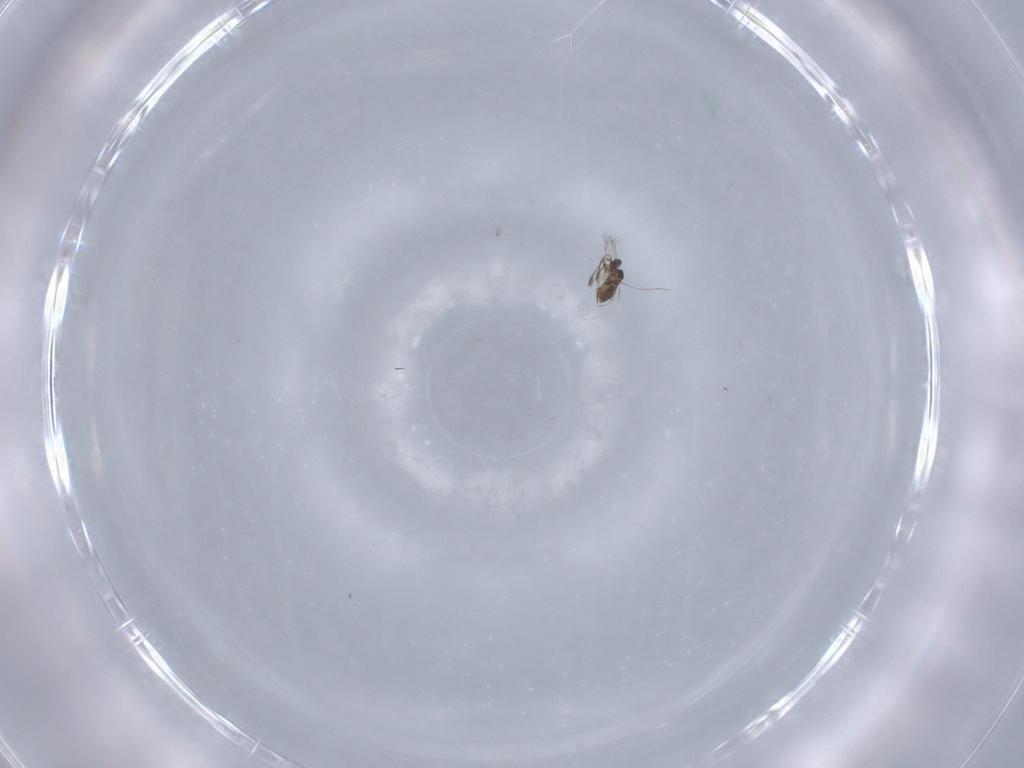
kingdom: Animalia
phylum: Arthropoda
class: Insecta
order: Hymenoptera
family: Mymaridae
